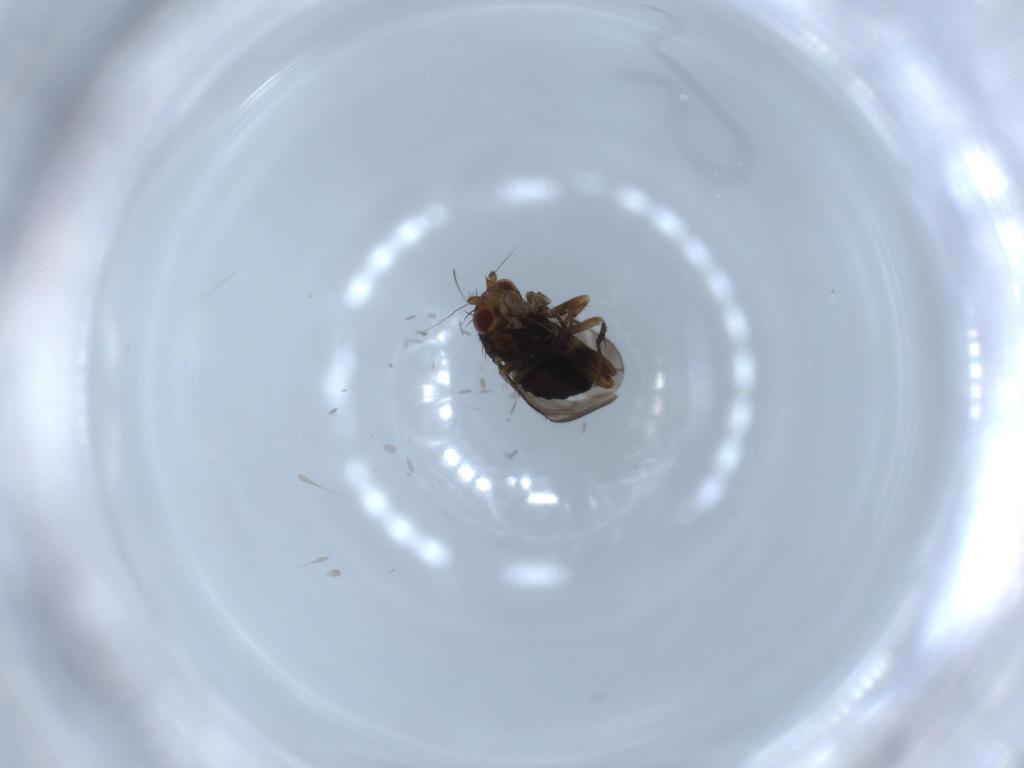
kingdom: Animalia
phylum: Arthropoda
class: Insecta
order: Diptera
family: Sphaeroceridae
